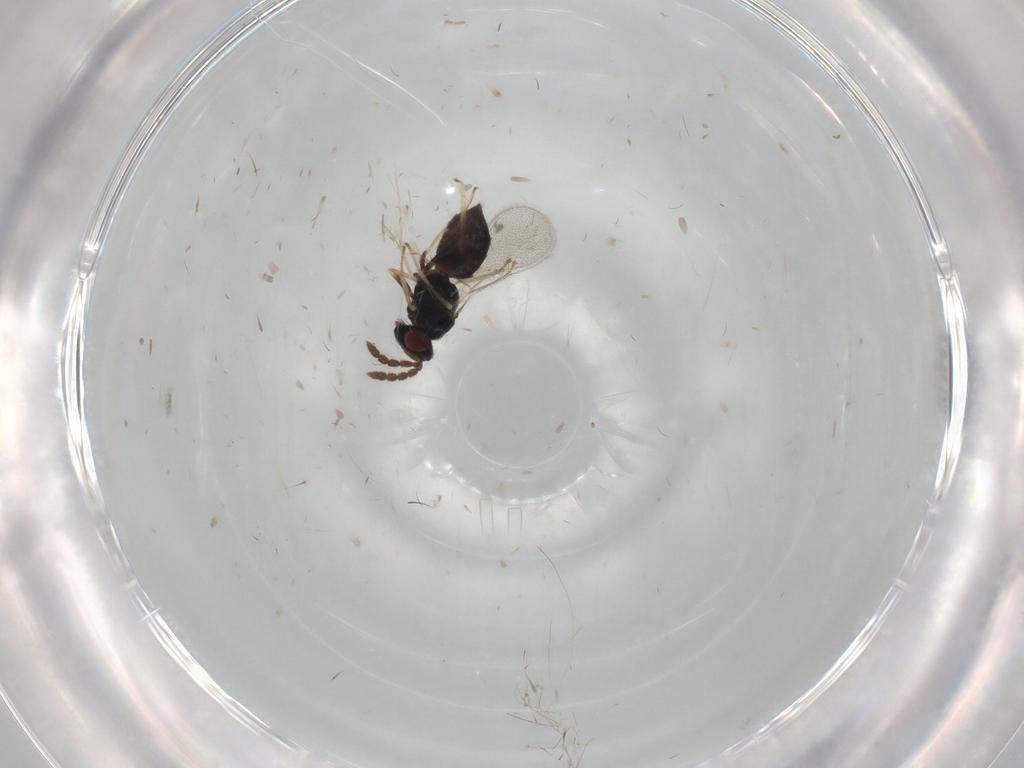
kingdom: Animalia
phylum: Arthropoda
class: Insecta
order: Hymenoptera
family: Eulophidae
